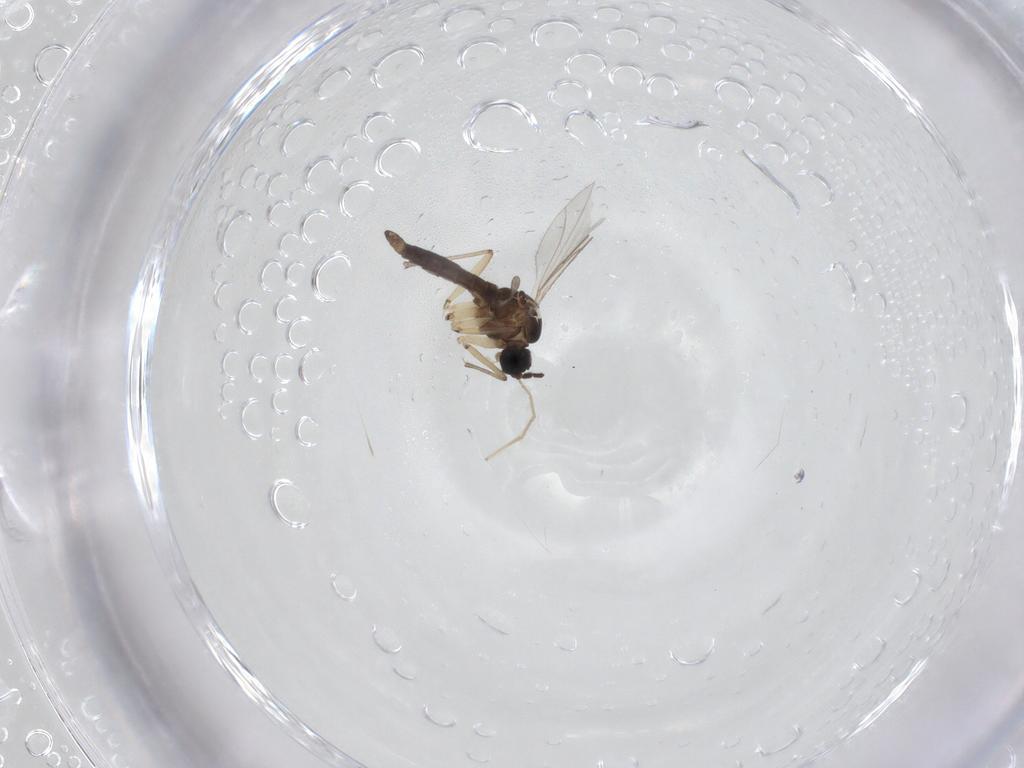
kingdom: Animalia
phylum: Arthropoda
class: Insecta
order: Diptera
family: Sciaridae
